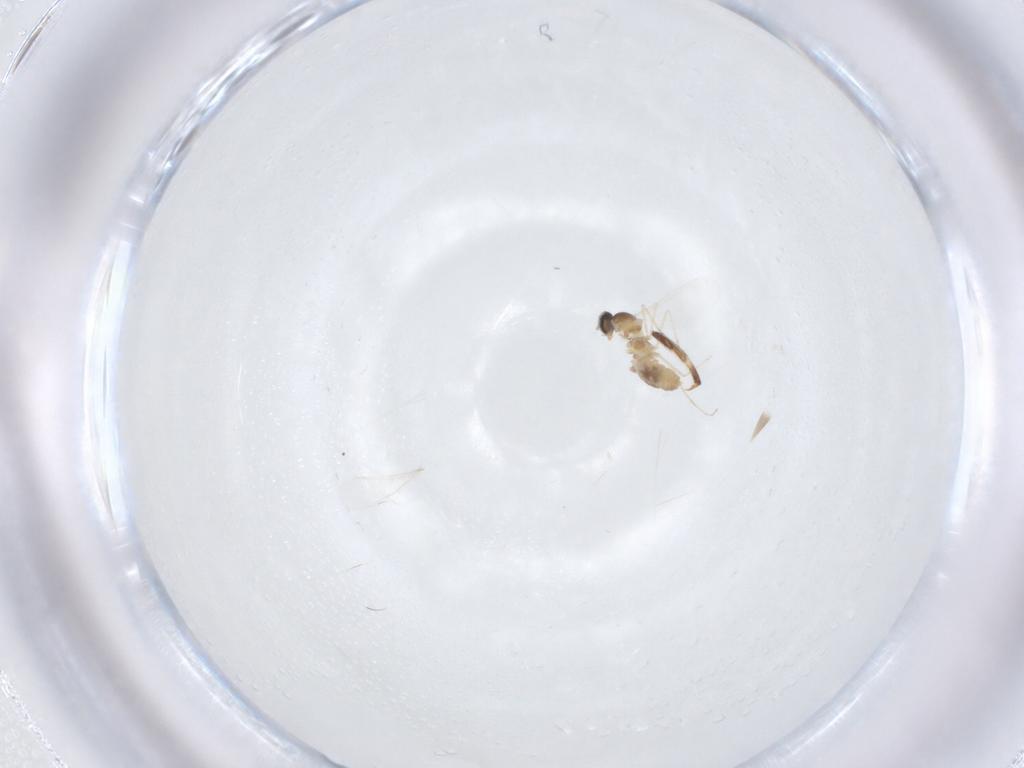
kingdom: Animalia
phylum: Arthropoda
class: Insecta
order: Diptera
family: Cecidomyiidae
